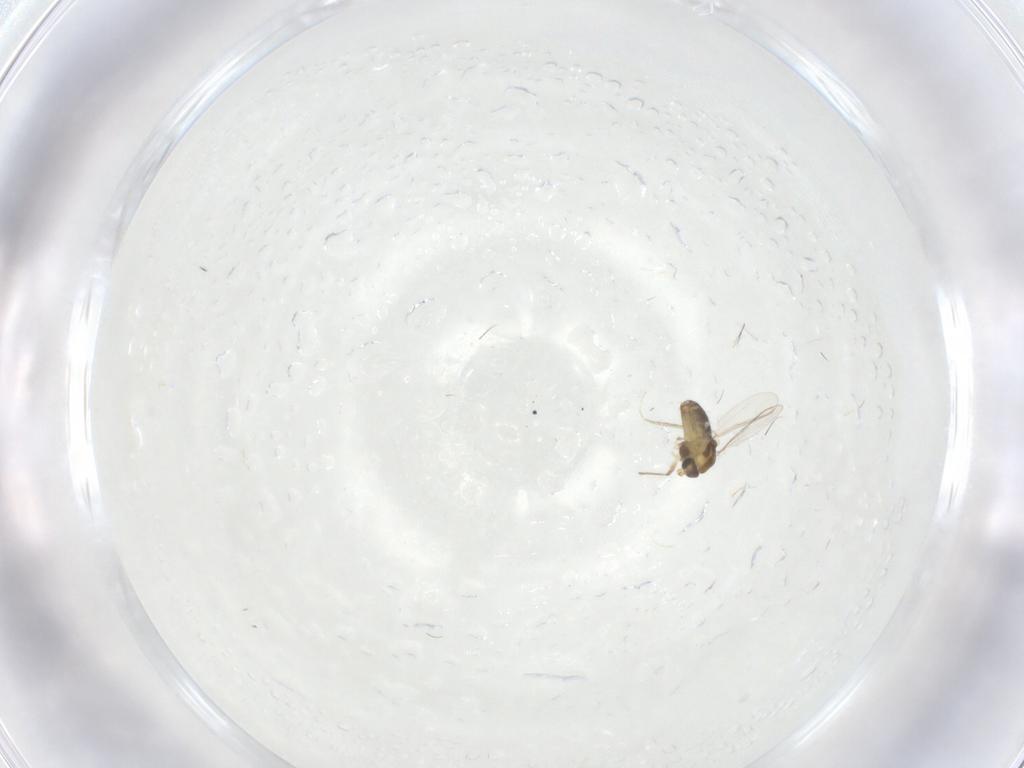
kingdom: Animalia
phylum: Arthropoda
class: Insecta
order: Diptera
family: Chironomidae
